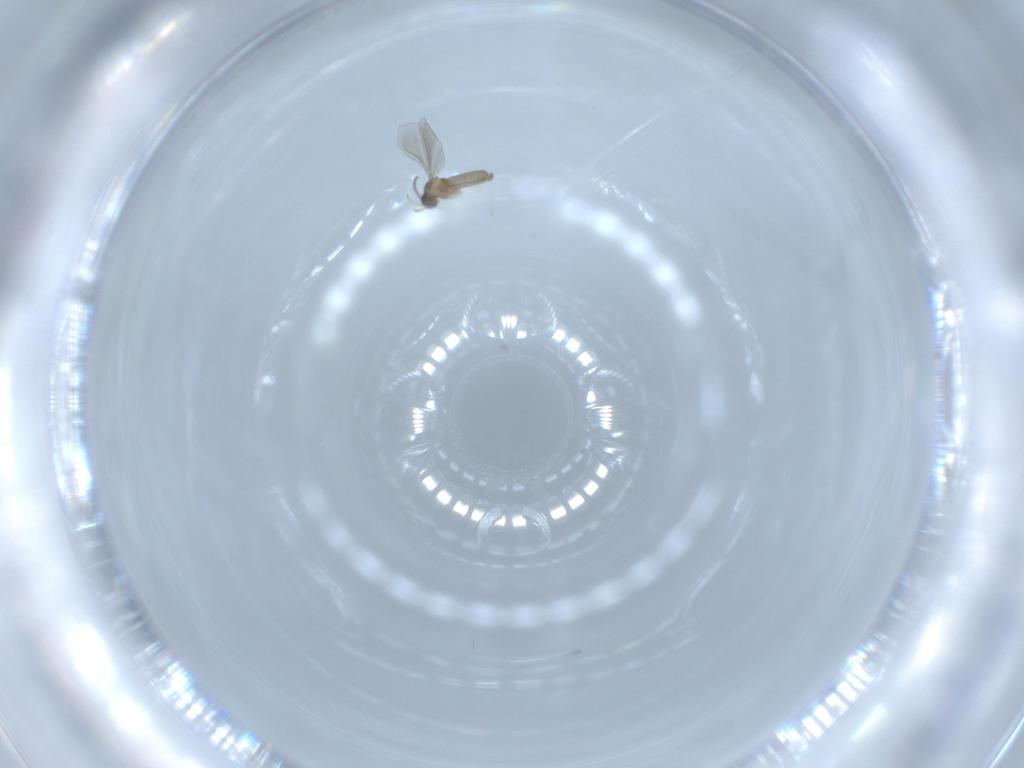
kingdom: Animalia
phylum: Arthropoda
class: Insecta
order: Diptera
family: Cecidomyiidae
